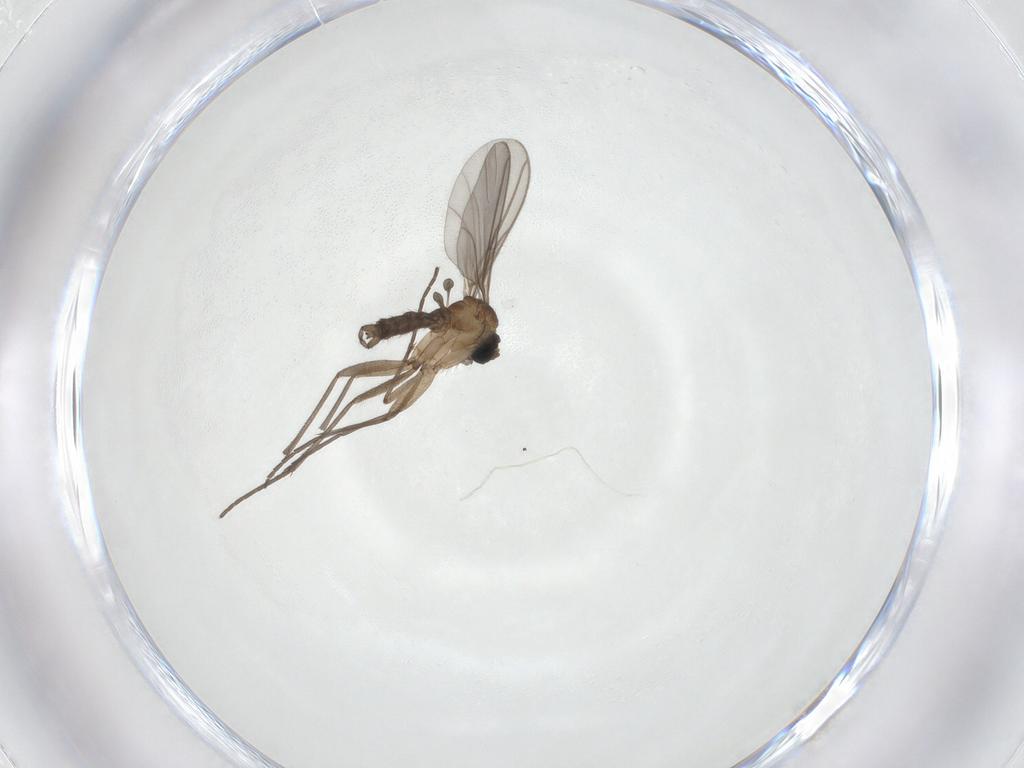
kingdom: Animalia
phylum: Arthropoda
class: Insecta
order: Diptera
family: Sciaridae
